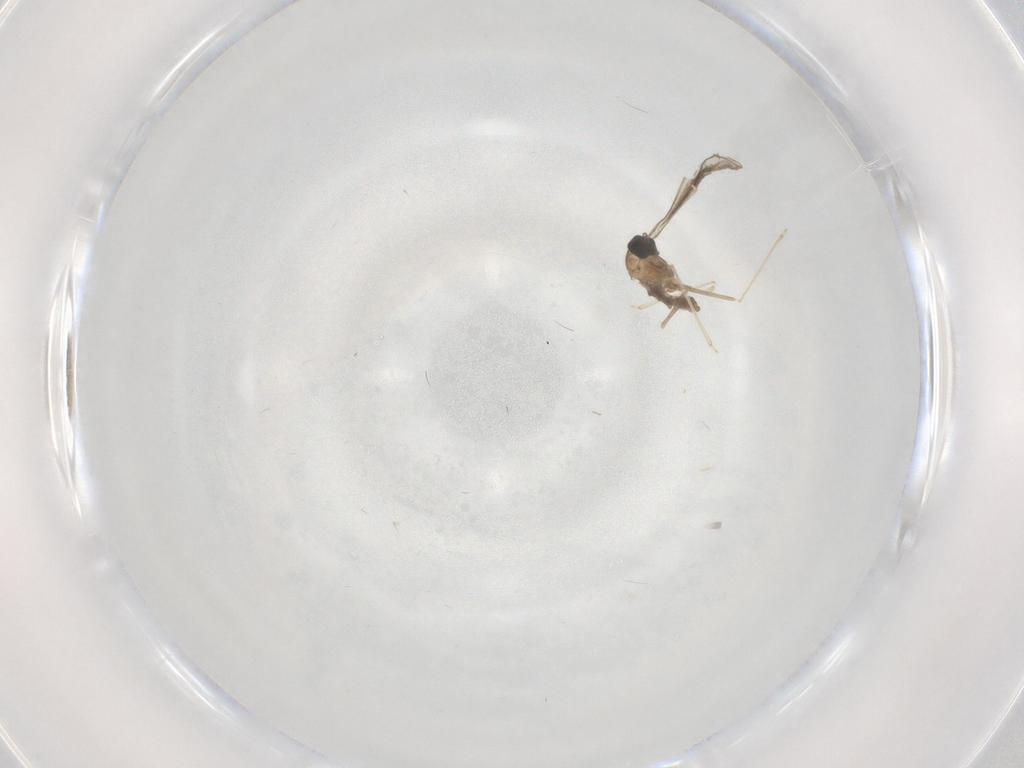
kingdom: Animalia
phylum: Arthropoda
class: Insecta
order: Diptera
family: Cecidomyiidae
